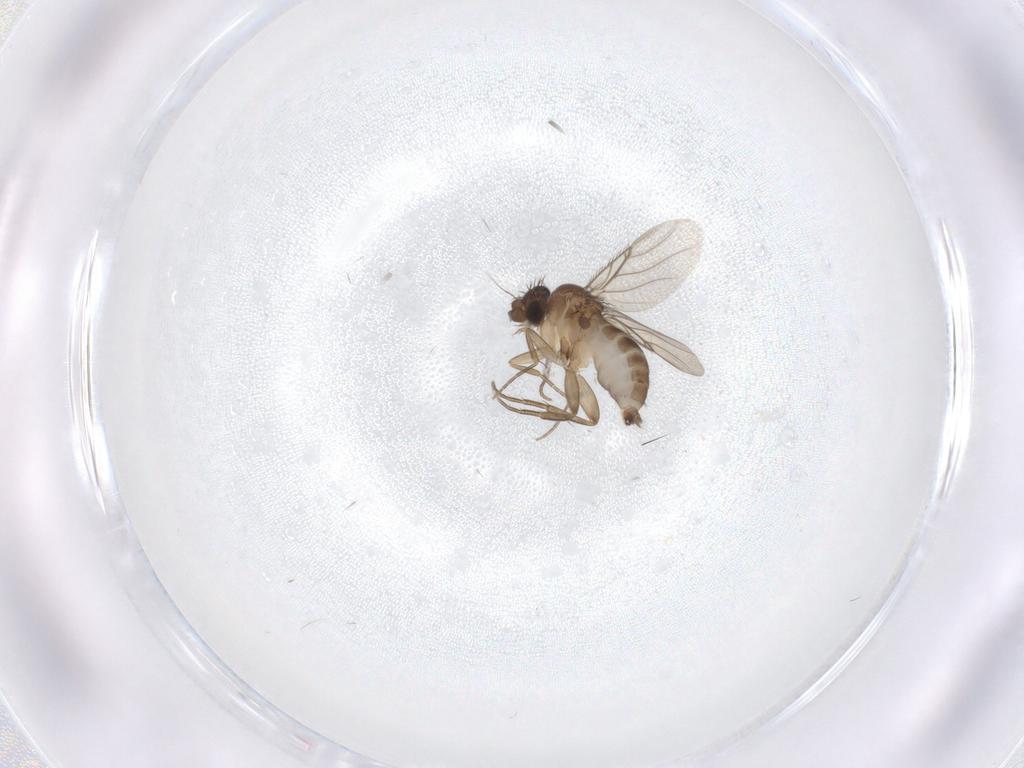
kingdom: Animalia
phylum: Arthropoda
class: Insecta
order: Diptera
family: Phoridae
